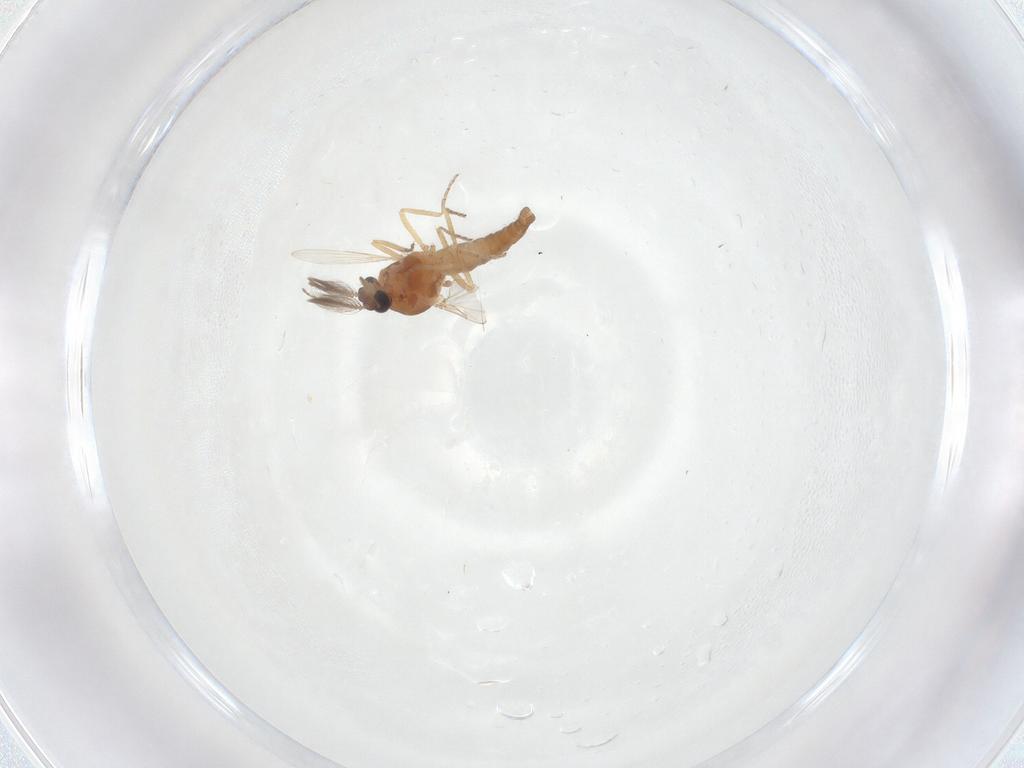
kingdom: Animalia
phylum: Arthropoda
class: Insecta
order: Diptera
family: Ceratopogonidae
